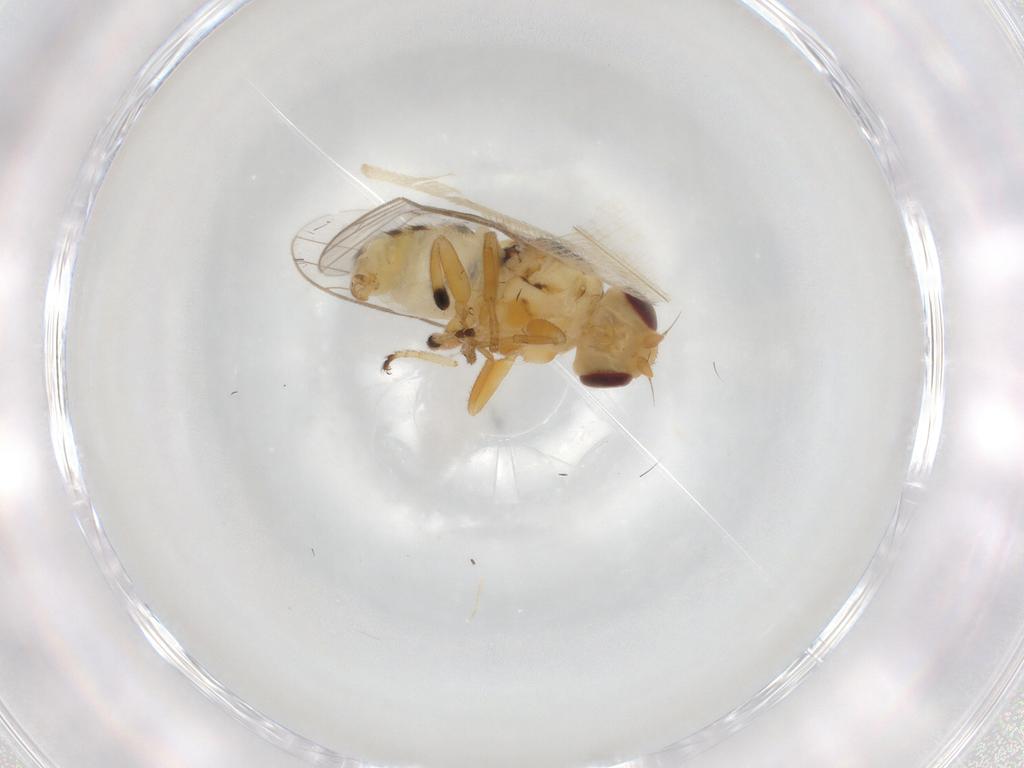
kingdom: Animalia
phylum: Arthropoda
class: Insecta
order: Diptera
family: Chloropidae
